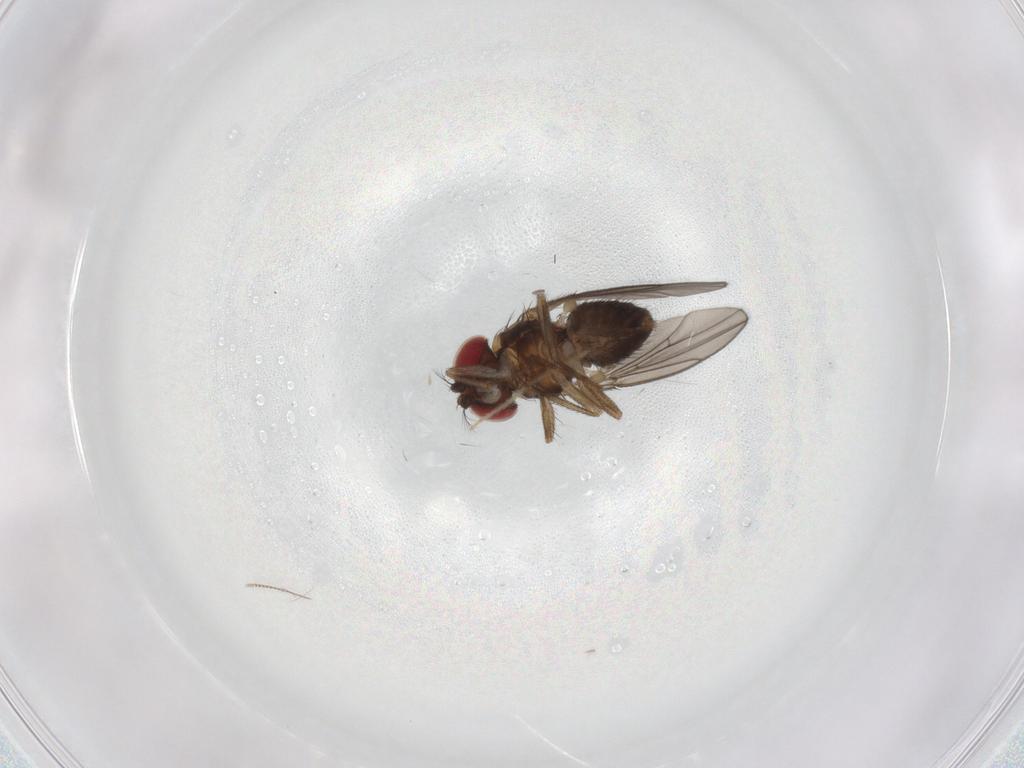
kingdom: Animalia
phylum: Arthropoda
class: Insecta
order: Diptera
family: Drosophilidae
